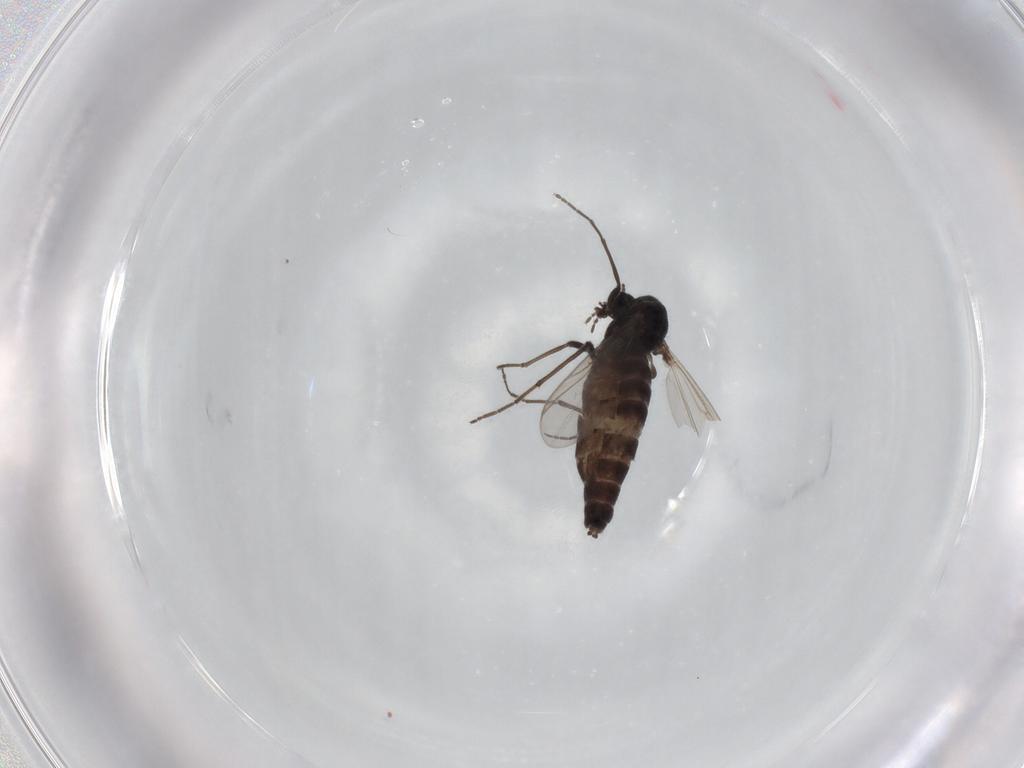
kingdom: Animalia
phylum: Arthropoda
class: Insecta
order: Diptera
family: Chironomidae
